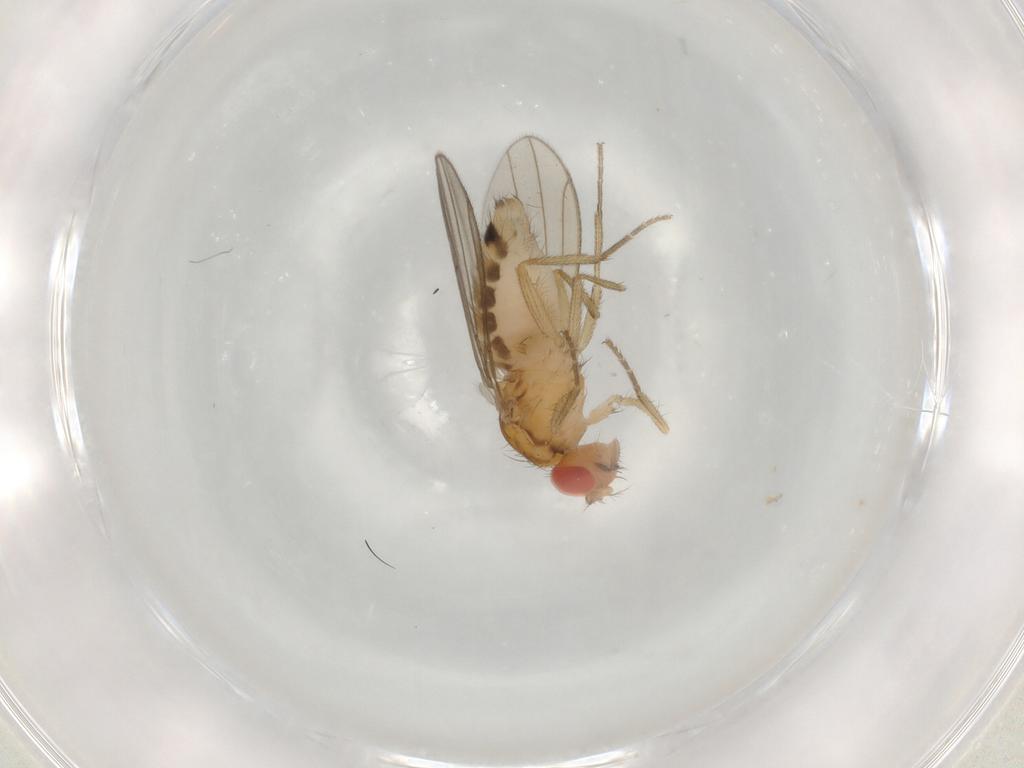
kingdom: Animalia
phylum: Arthropoda
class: Insecta
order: Diptera
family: Drosophilidae
